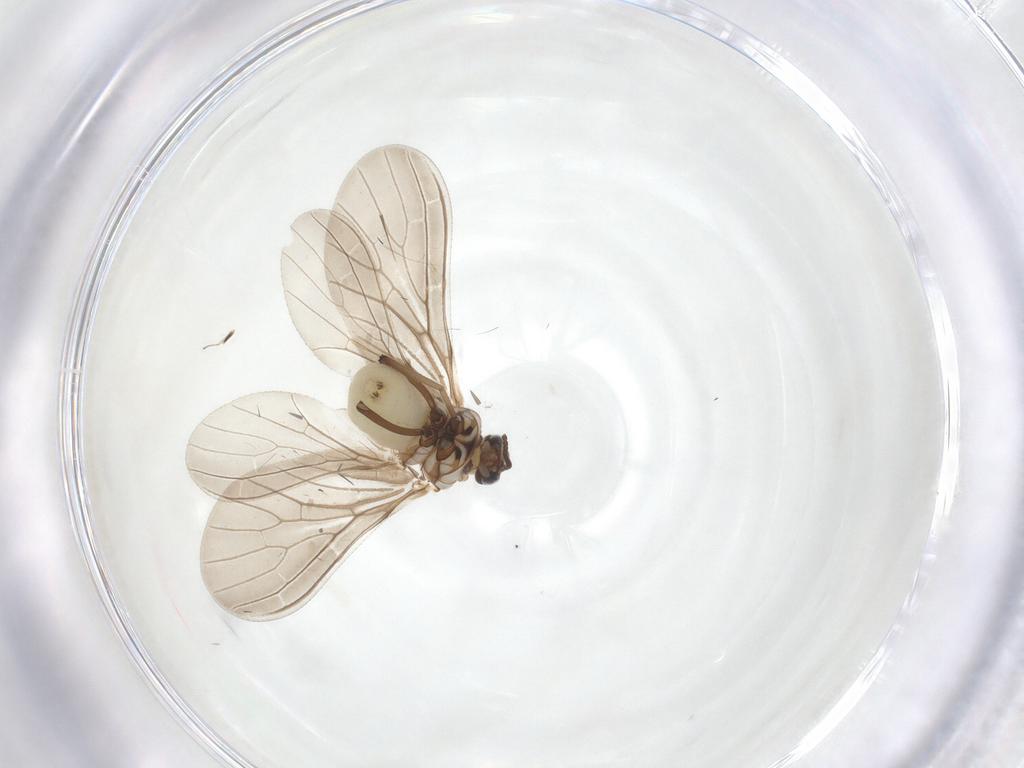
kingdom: Animalia
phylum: Arthropoda
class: Insecta
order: Neuroptera
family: Coniopterygidae
